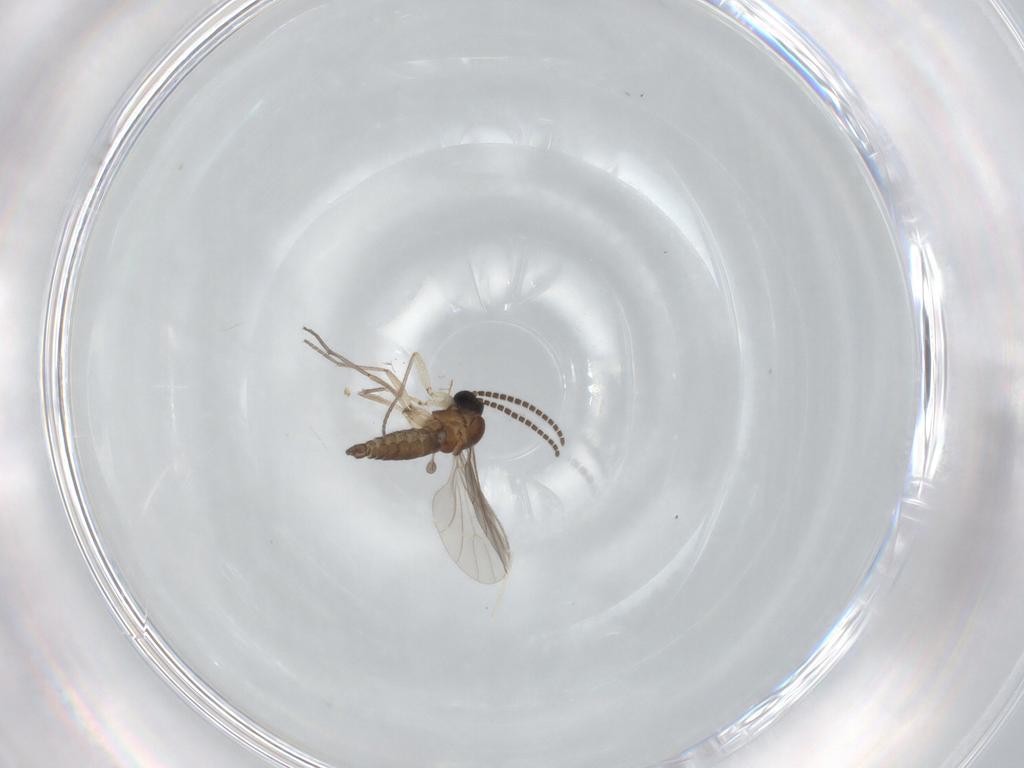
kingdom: Animalia
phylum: Arthropoda
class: Insecta
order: Diptera
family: Sciaridae
